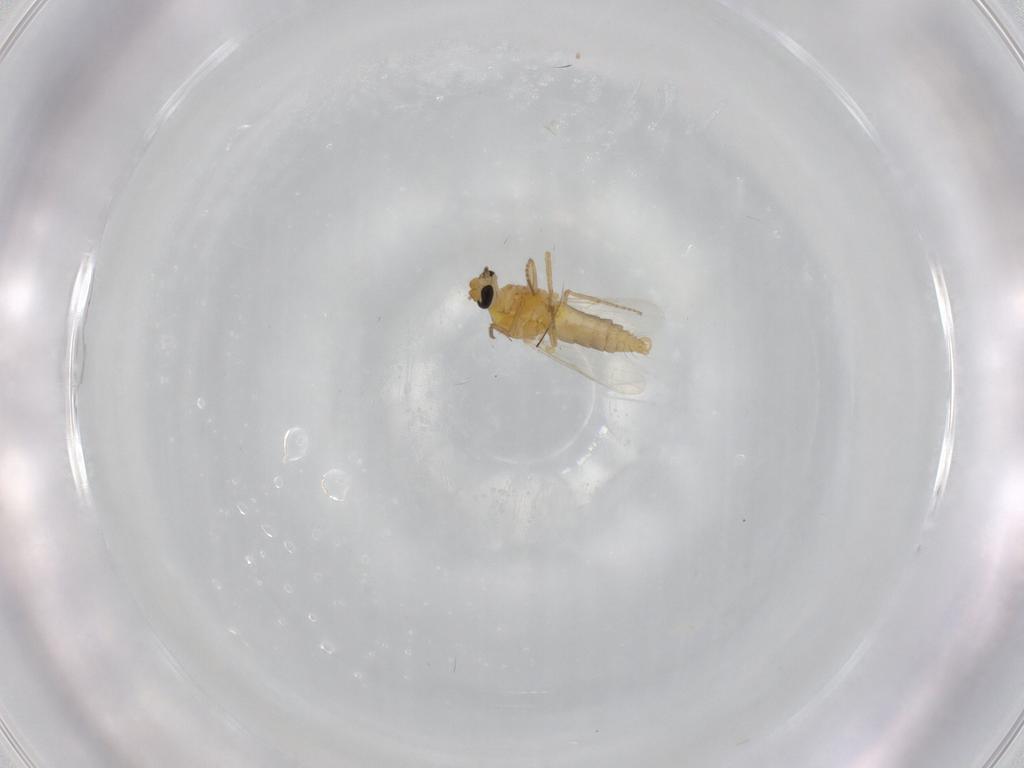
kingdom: Animalia
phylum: Arthropoda
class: Insecta
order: Diptera
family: Ceratopogonidae
